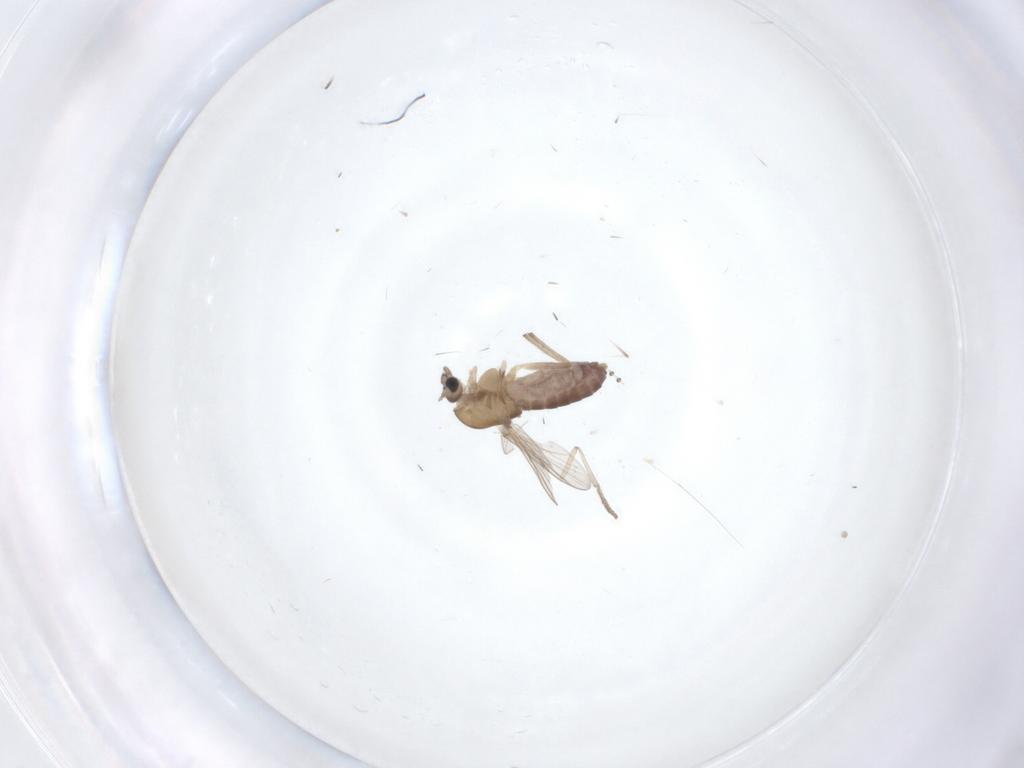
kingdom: Animalia
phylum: Arthropoda
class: Insecta
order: Diptera
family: Chironomidae
